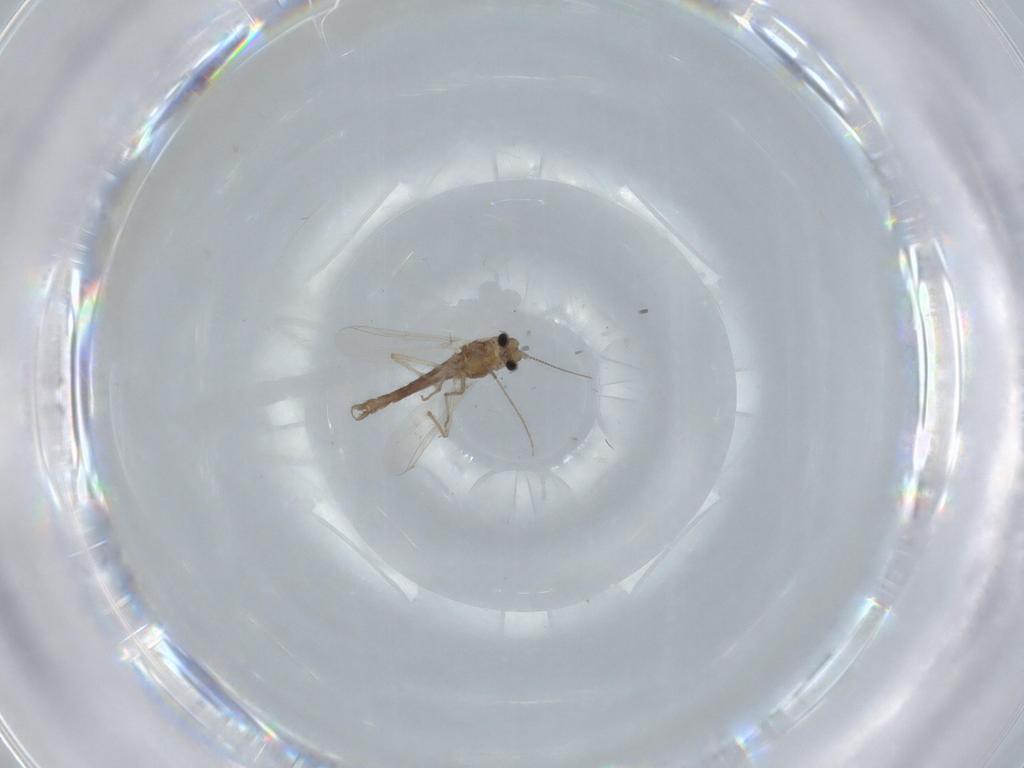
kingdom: Animalia
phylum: Arthropoda
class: Insecta
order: Diptera
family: Chironomidae
